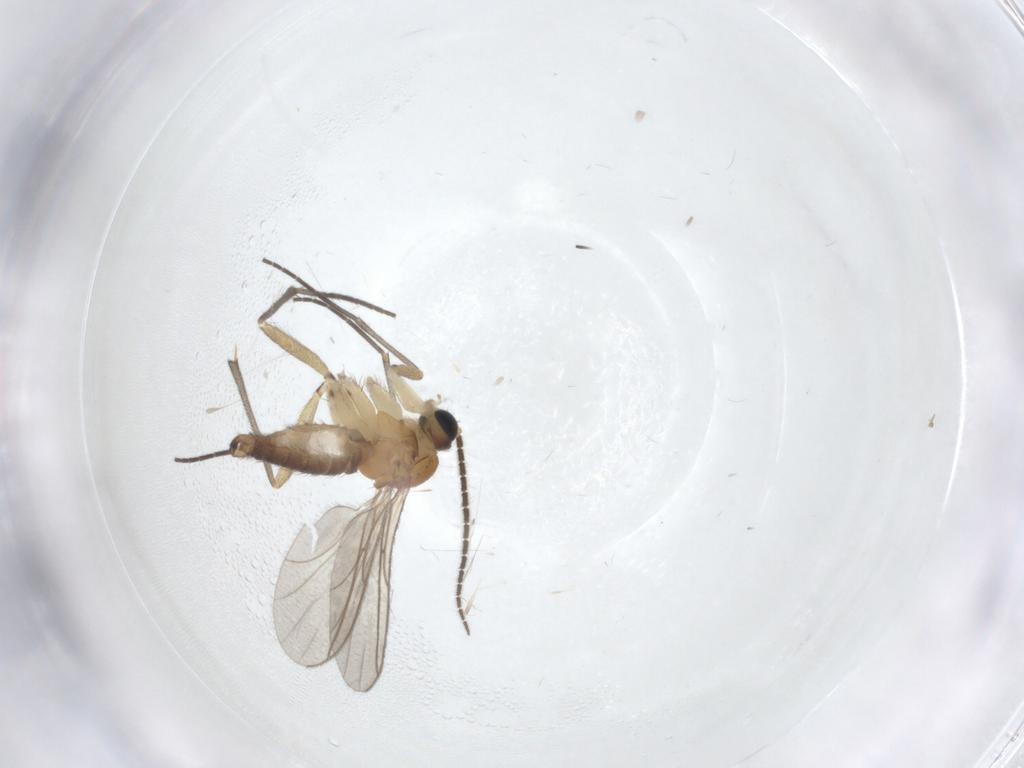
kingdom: Animalia
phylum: Arthropoda
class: Insecta
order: Diptera
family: Sciaridae
